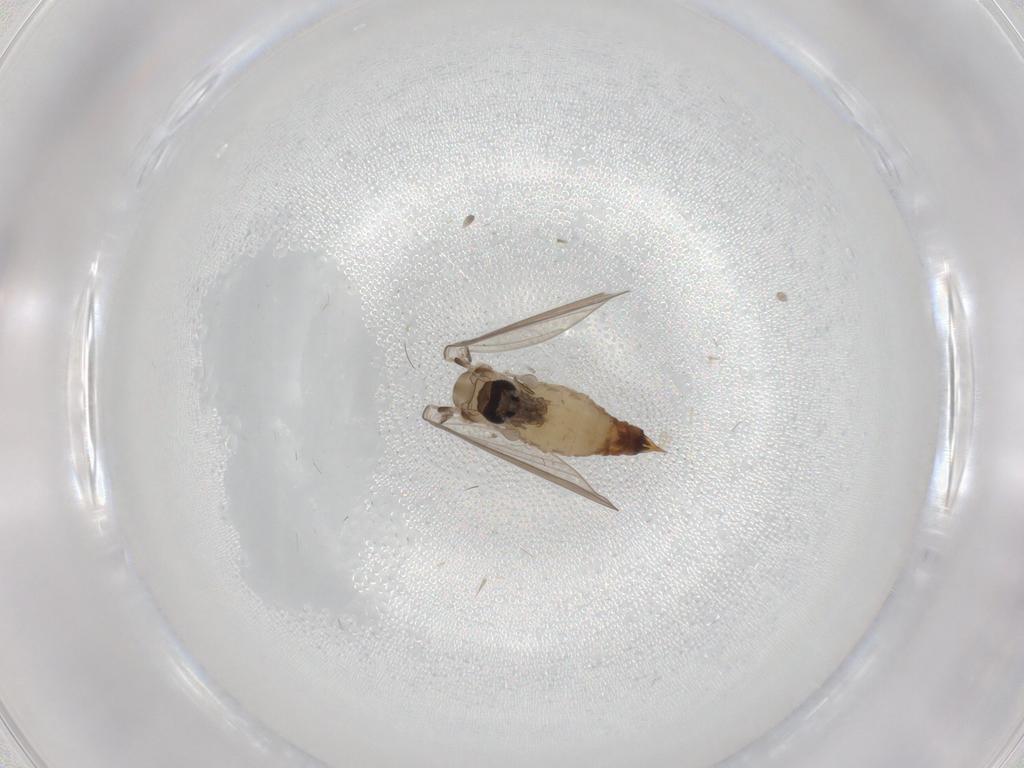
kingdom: Animalia
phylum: Arthropoda
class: Insecta
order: Diptera
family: Psychodidae
